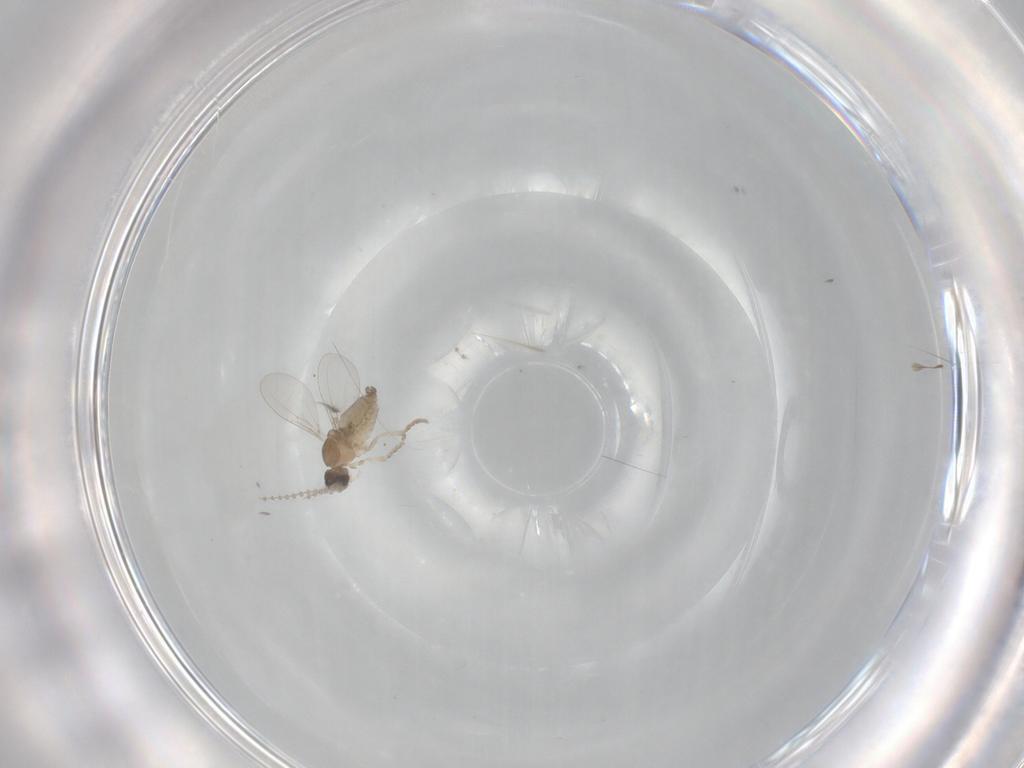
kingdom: Animalia
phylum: Arthropoda
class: Insecta
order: Diptera
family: Cecidomyiidae
